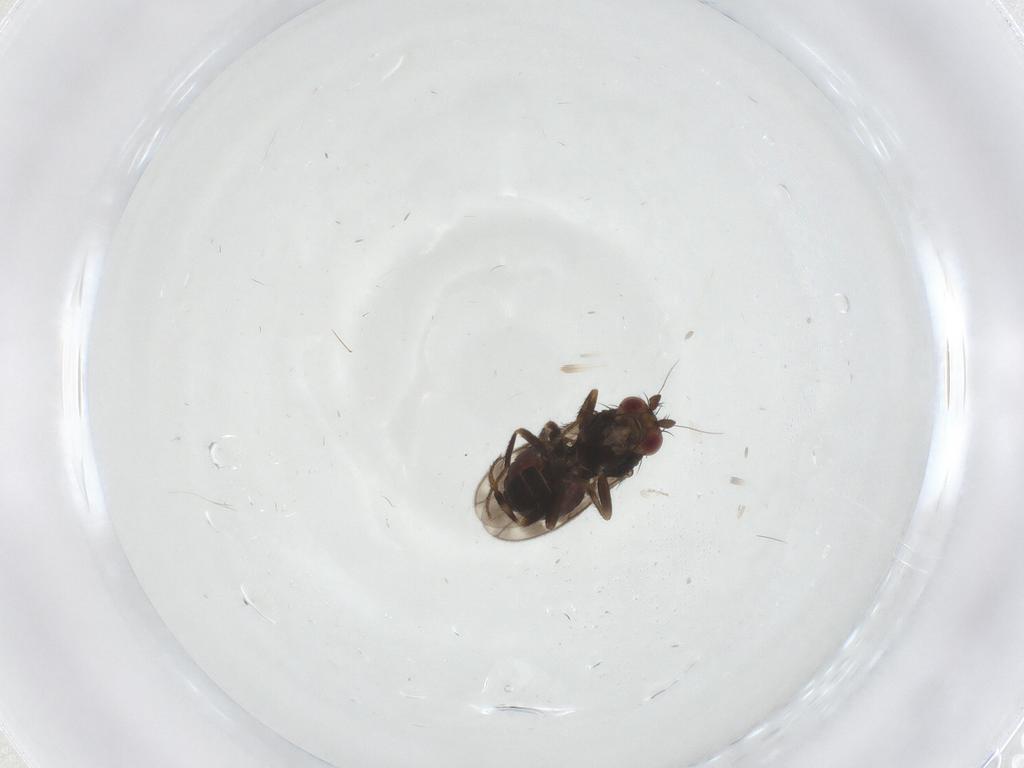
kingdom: Animalia
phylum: Arthropoda
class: Insecta
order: Diptera
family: Sphaeroceridae
